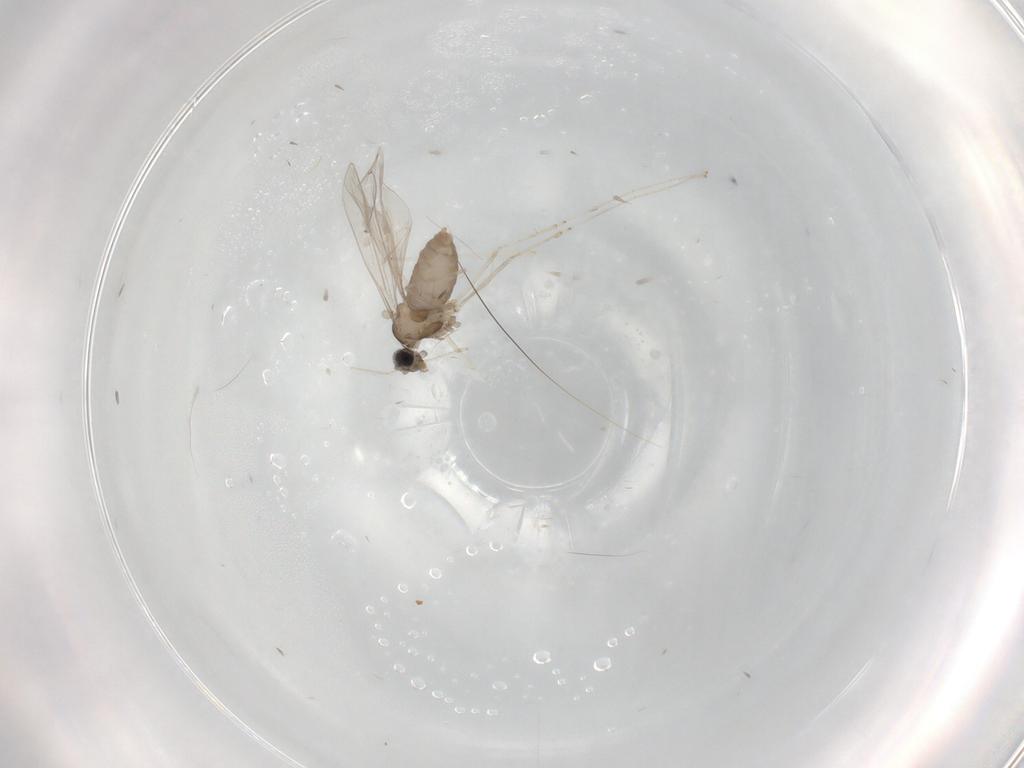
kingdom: Animalia
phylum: Arthropoda
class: Insecta
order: Diptera
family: Cecidomyiidae
